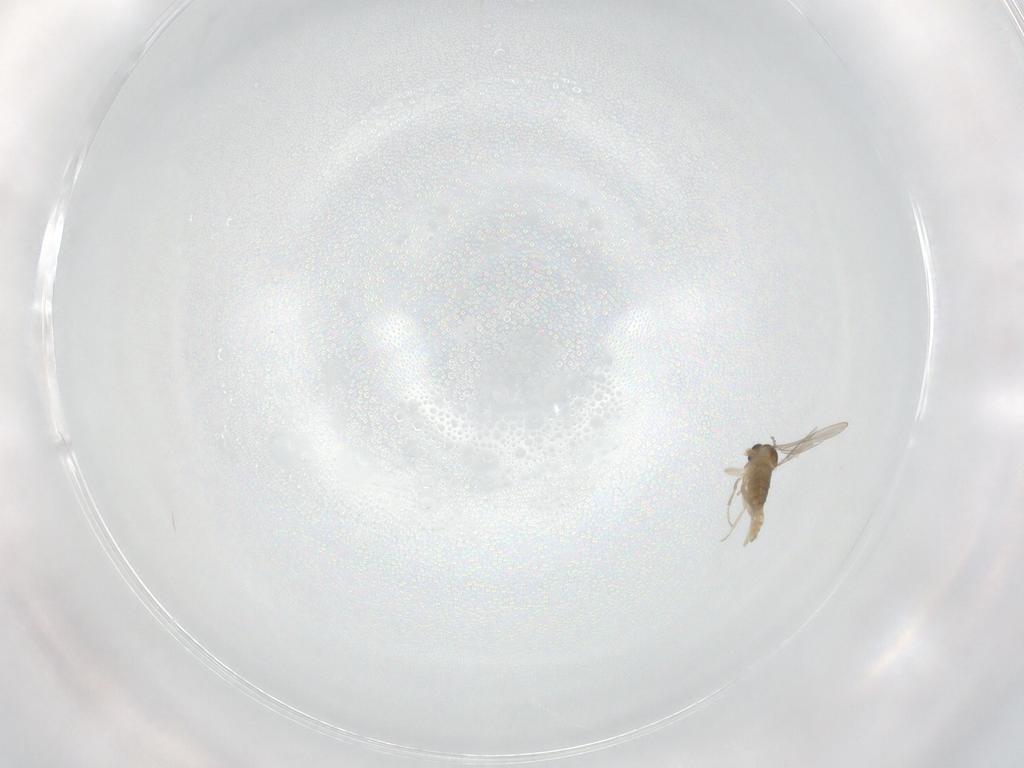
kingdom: Animalia
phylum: Arthropoda
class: Insecta
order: Diptera
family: Cecidomyiidae
